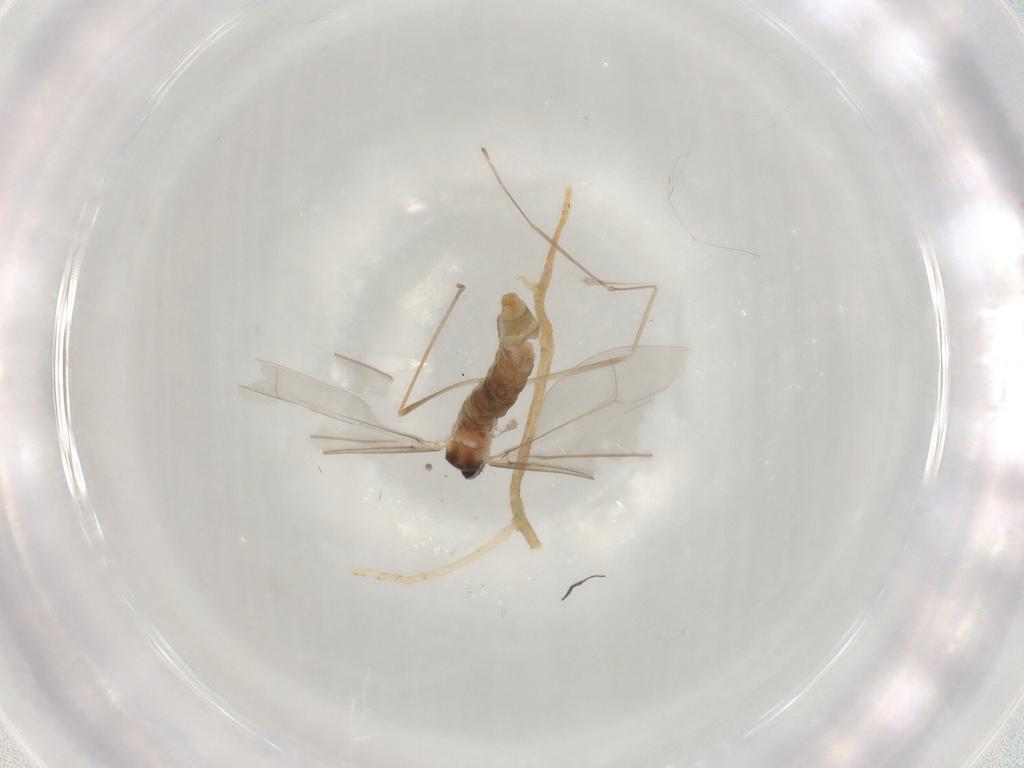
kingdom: Animalia
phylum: Arthropoda
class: Insecta
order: Diptera
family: Cecidomyiidae
